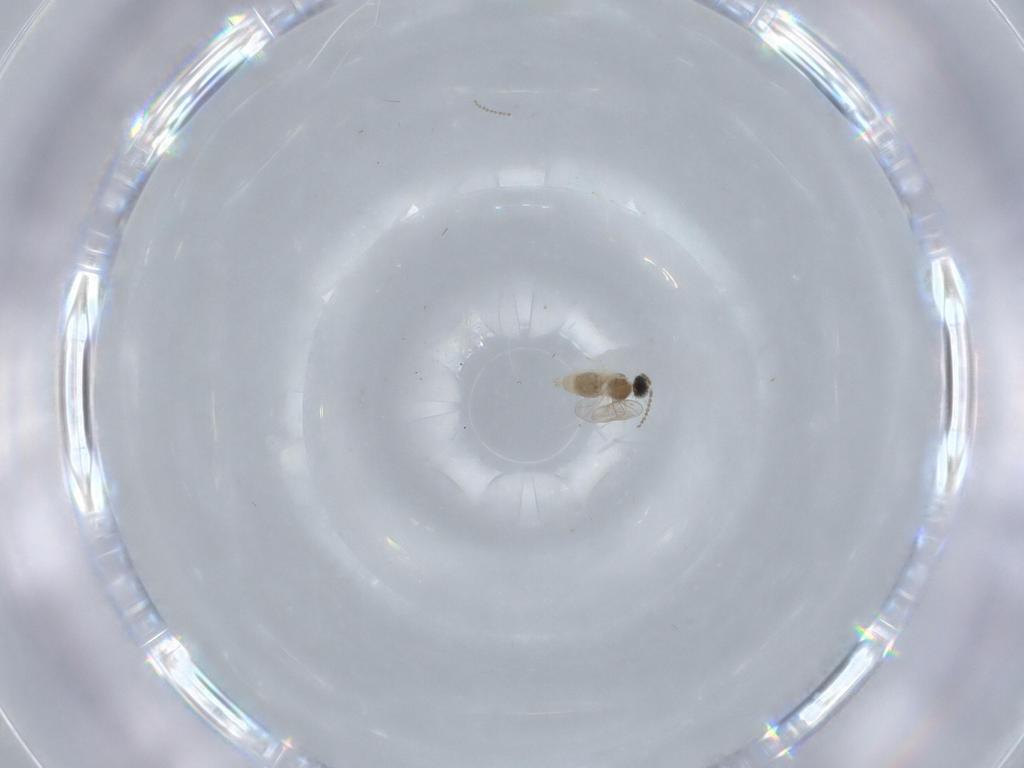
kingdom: Animalia
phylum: Arthropoda
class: Insecta
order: Diptera
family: Cecidomyiidae
